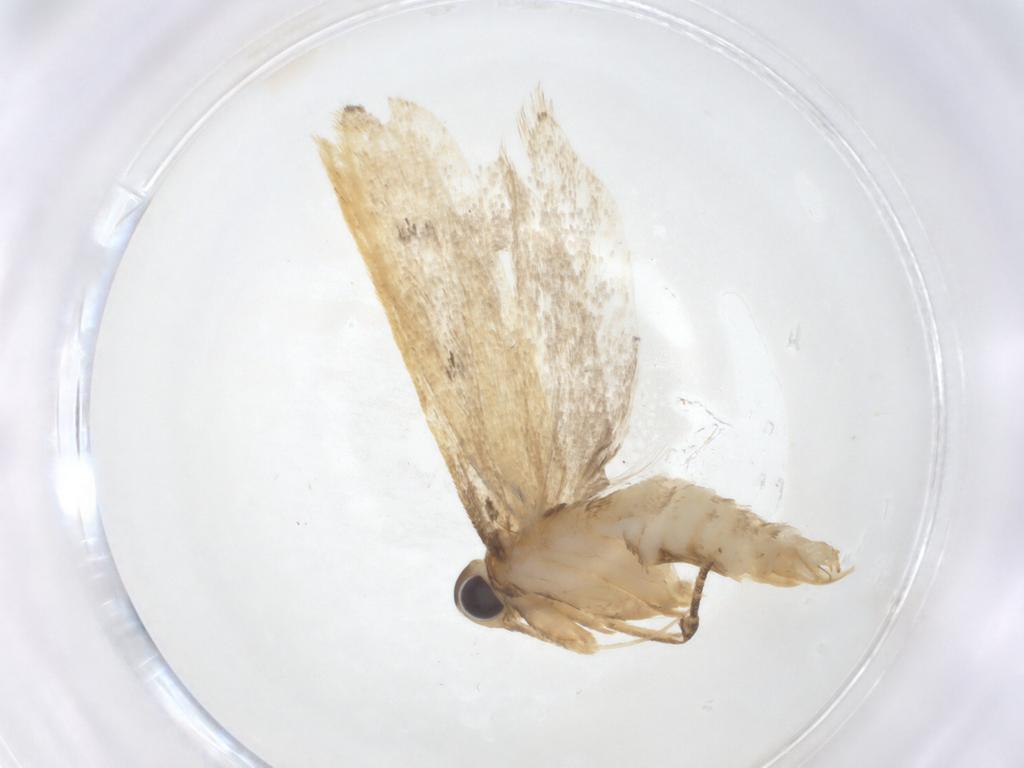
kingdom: Animalia
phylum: Arthropoda
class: Insecta
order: Lepidoptera
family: Lecithoceridae
